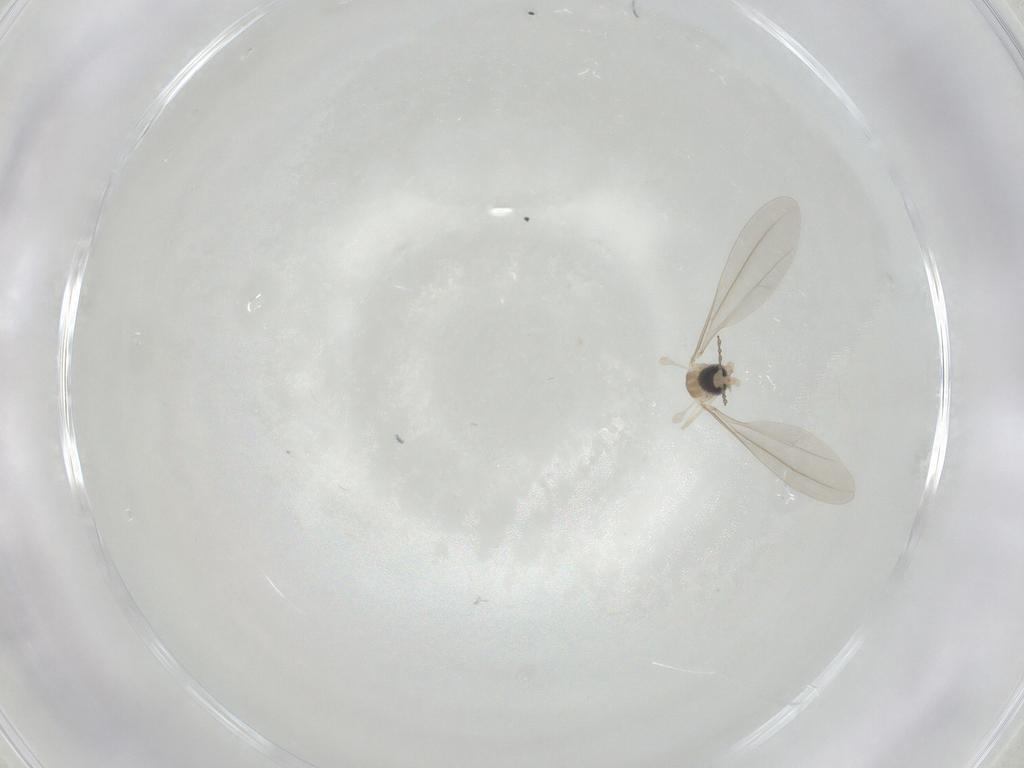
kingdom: Animalia
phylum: Arthropoda
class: Insecta
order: Diptera
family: Cecidomyiidae
